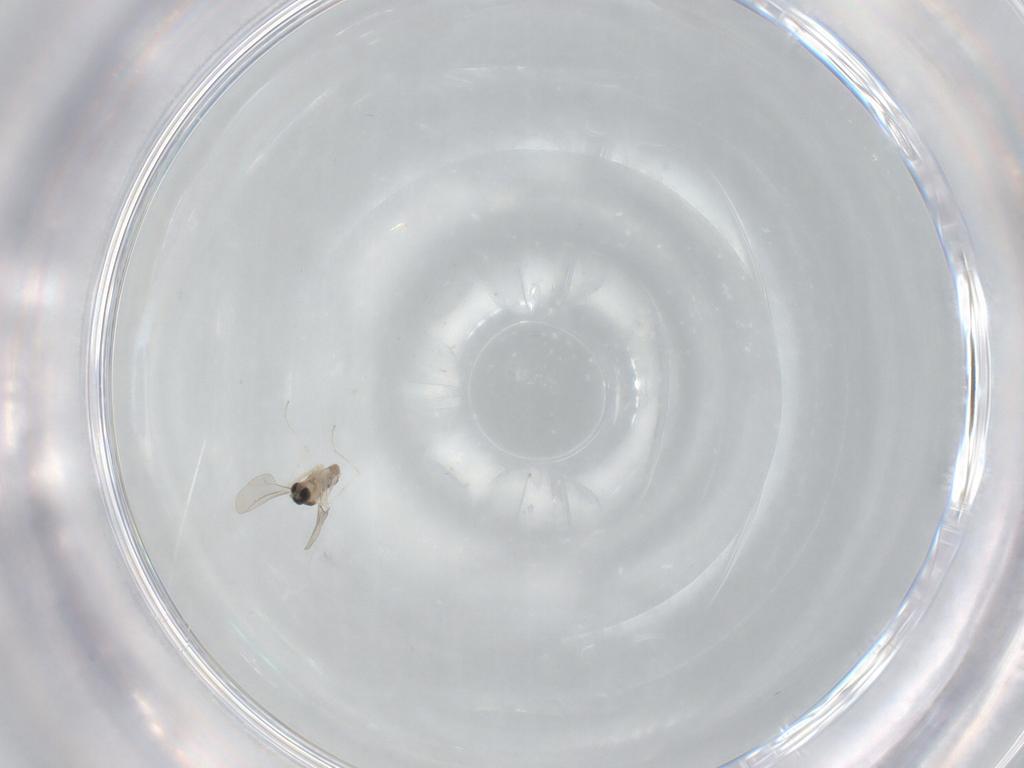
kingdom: Animalia
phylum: Arthropoda
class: Insecta
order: Diptera
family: Cecidomyiidae
